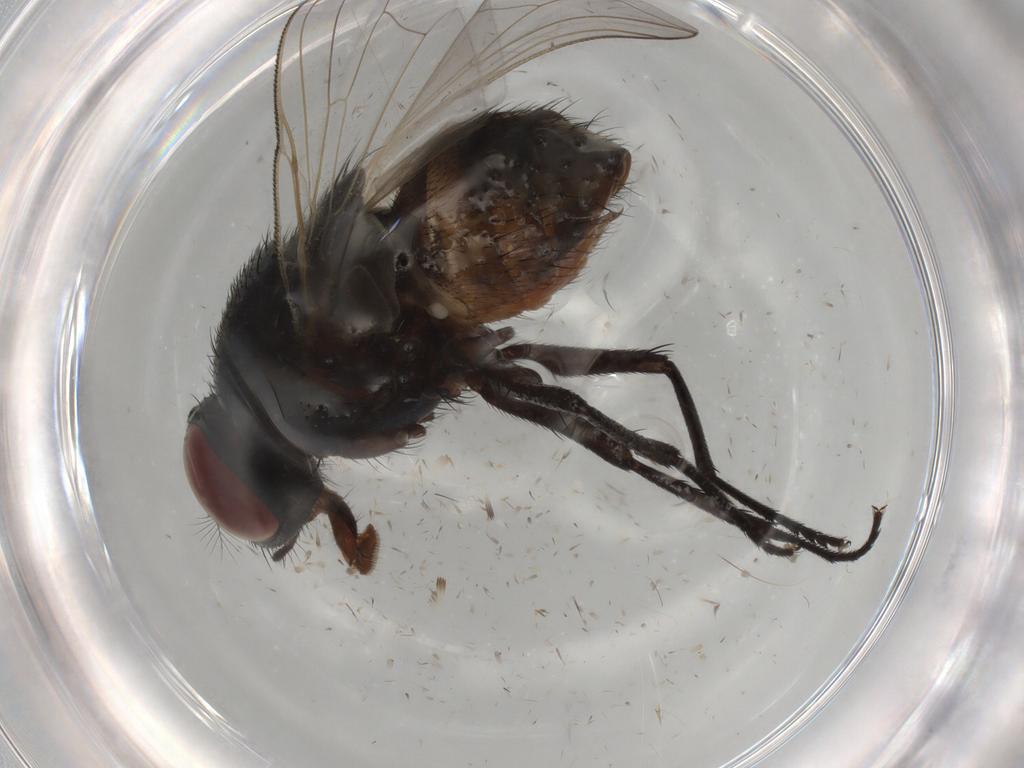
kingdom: Animalia
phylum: Arthropoda
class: Insecta
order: Diptera
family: Muscidae
